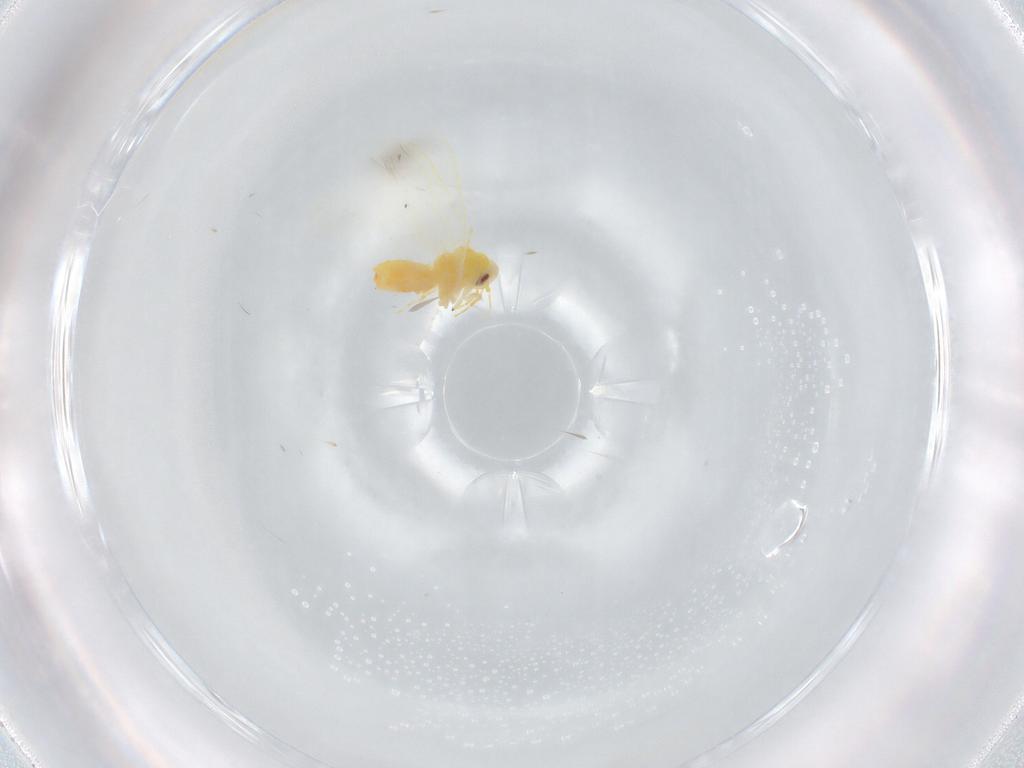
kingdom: Animalia
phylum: Arthropoda
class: Insecta
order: Hemiptera
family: Aleyrodidae
